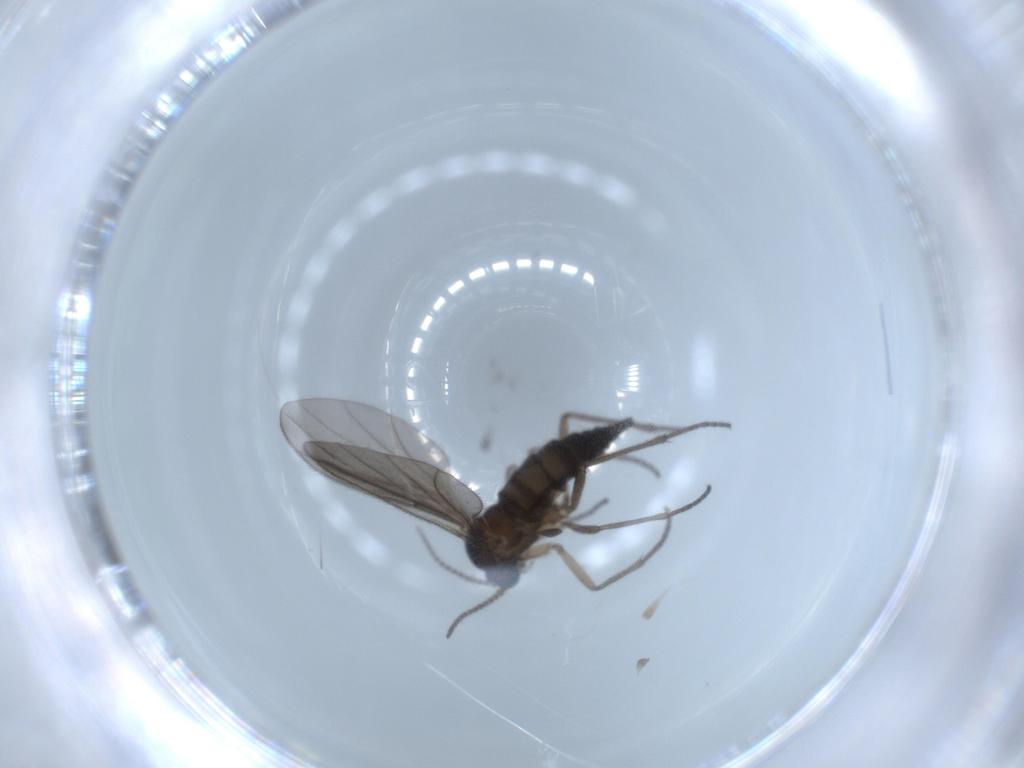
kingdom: Animalia
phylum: Arthropoda
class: Insecta
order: Diptera
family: Sciaridae
